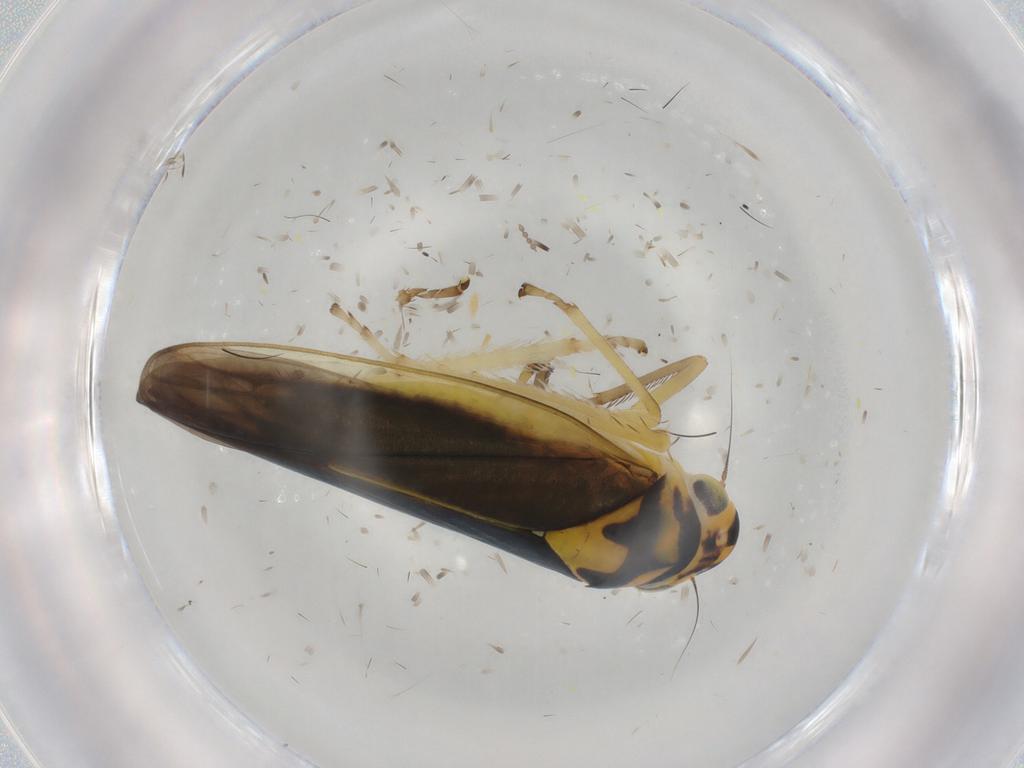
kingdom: Animalia
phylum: Arthropoda
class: Insecta
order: Hemiptera
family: Cicadellidae
